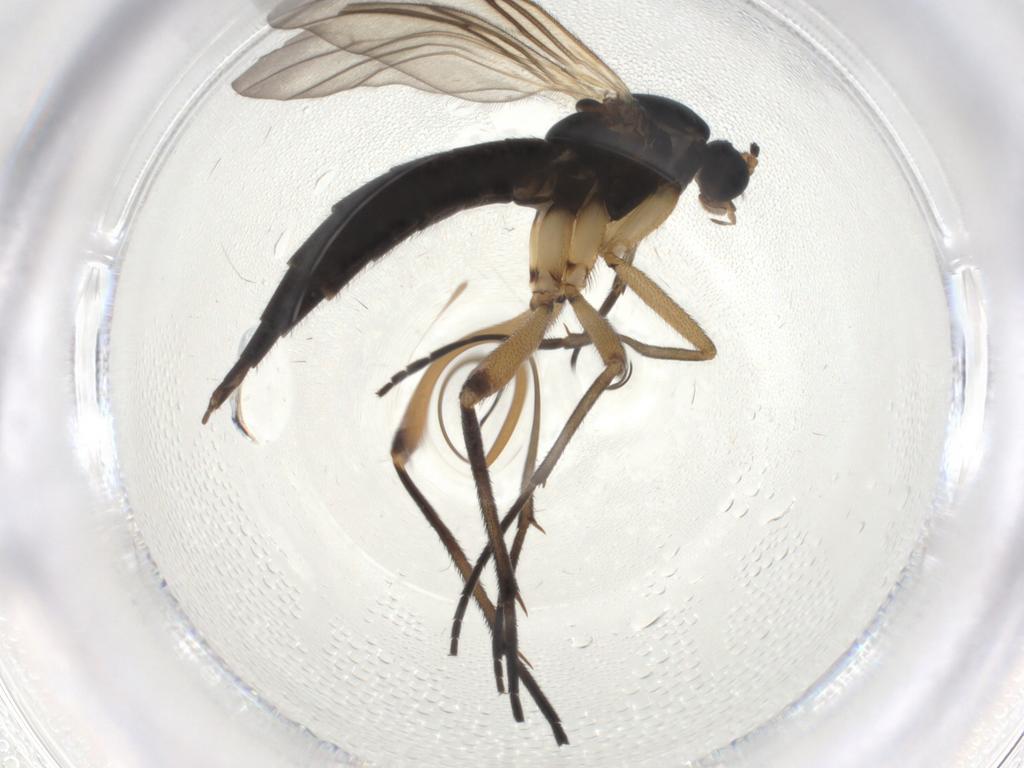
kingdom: Animalia
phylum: Arthropoda
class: Insecta
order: Diptera
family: Sciaridae
